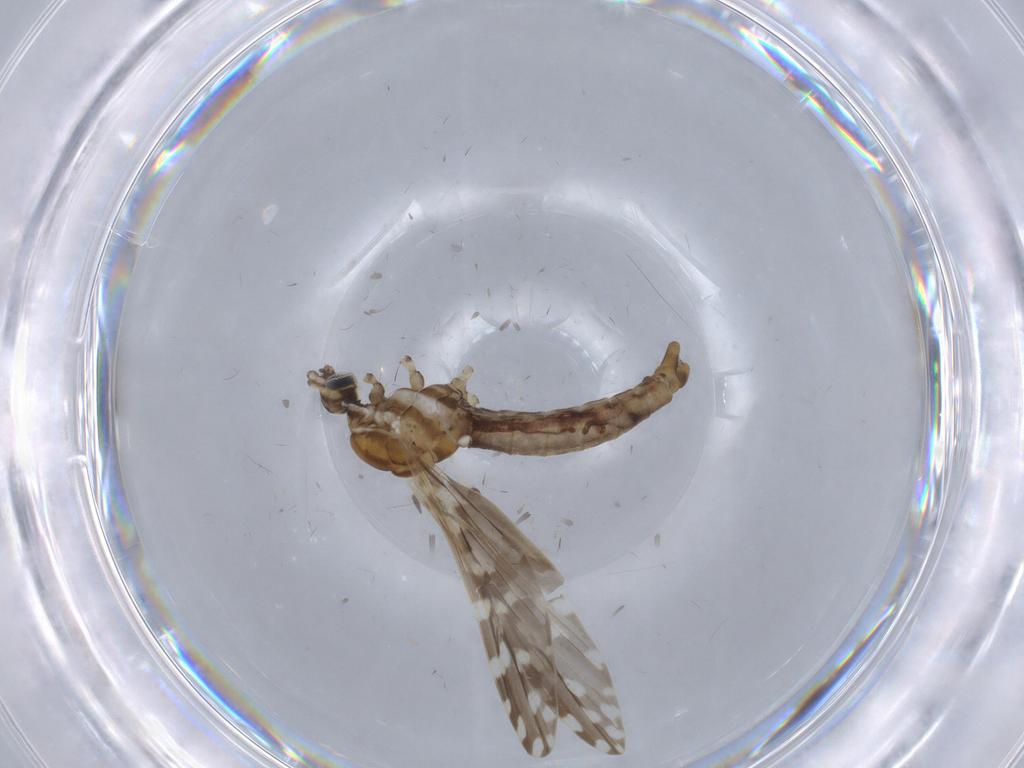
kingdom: Animalia
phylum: Arthropoda
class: Insecta
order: Diptera
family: Psychodidae
